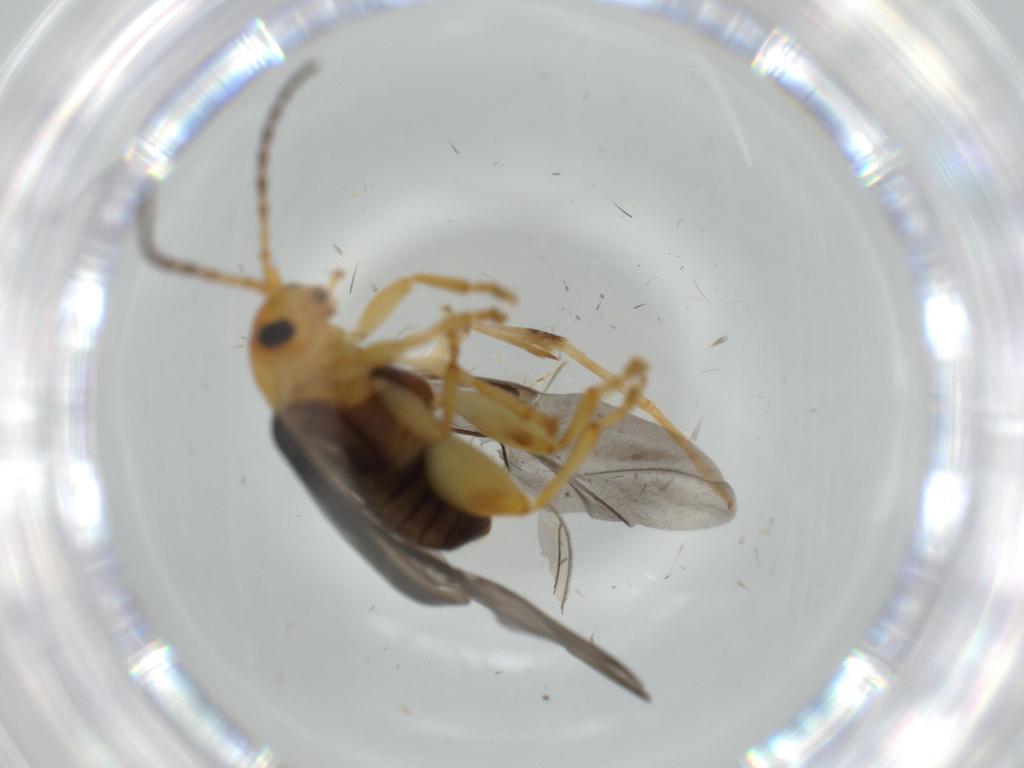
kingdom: Animalia
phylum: Arthropoda
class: Insecta
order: Coleoptera
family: Chrysomelidae
